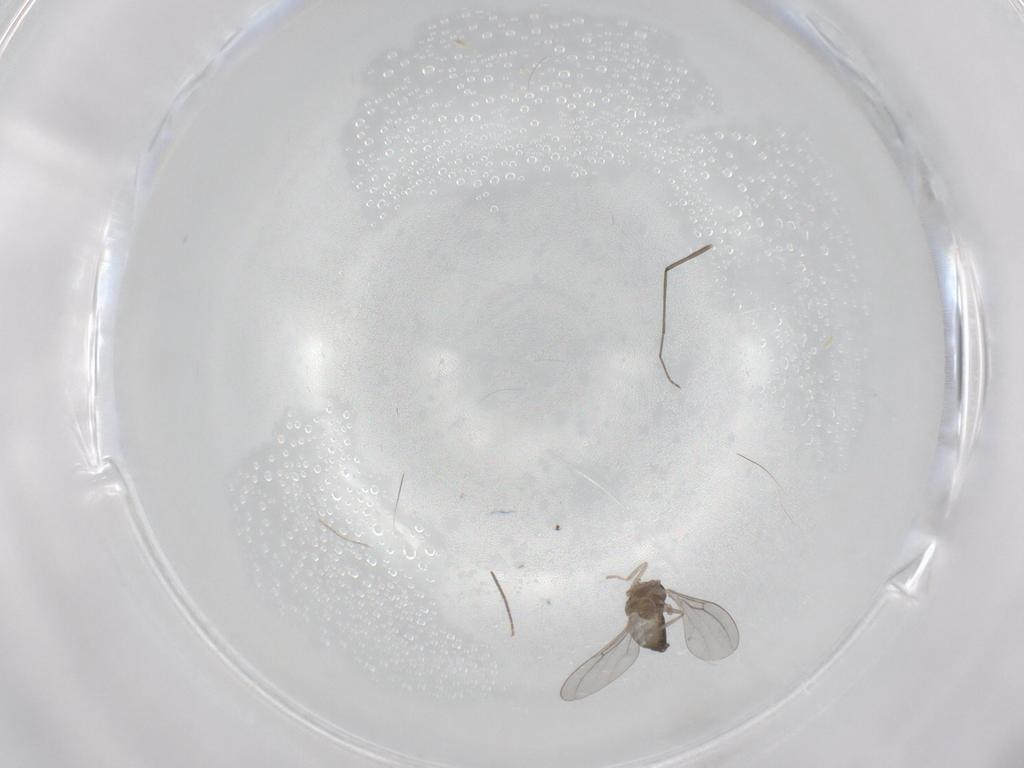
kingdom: Animalia
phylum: Arthropoda
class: Insecta
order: Diptera
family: Cecidomyiidae
